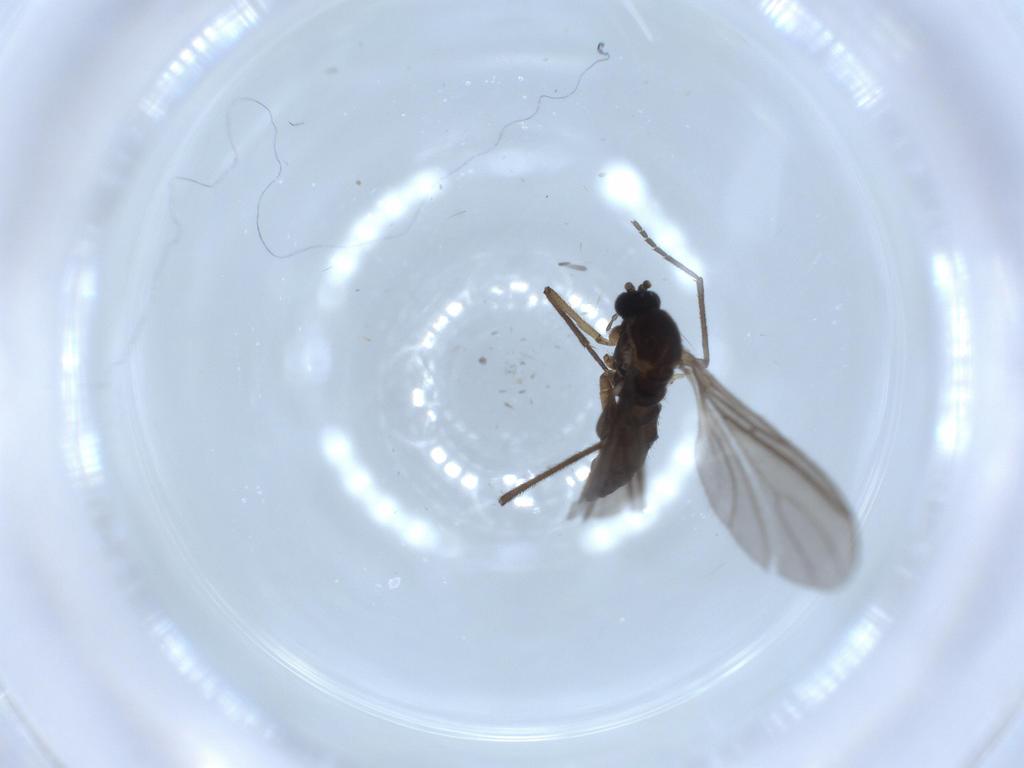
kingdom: Animalia
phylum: Arthropoda
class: Insecta
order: Diptera
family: Sciaridae
